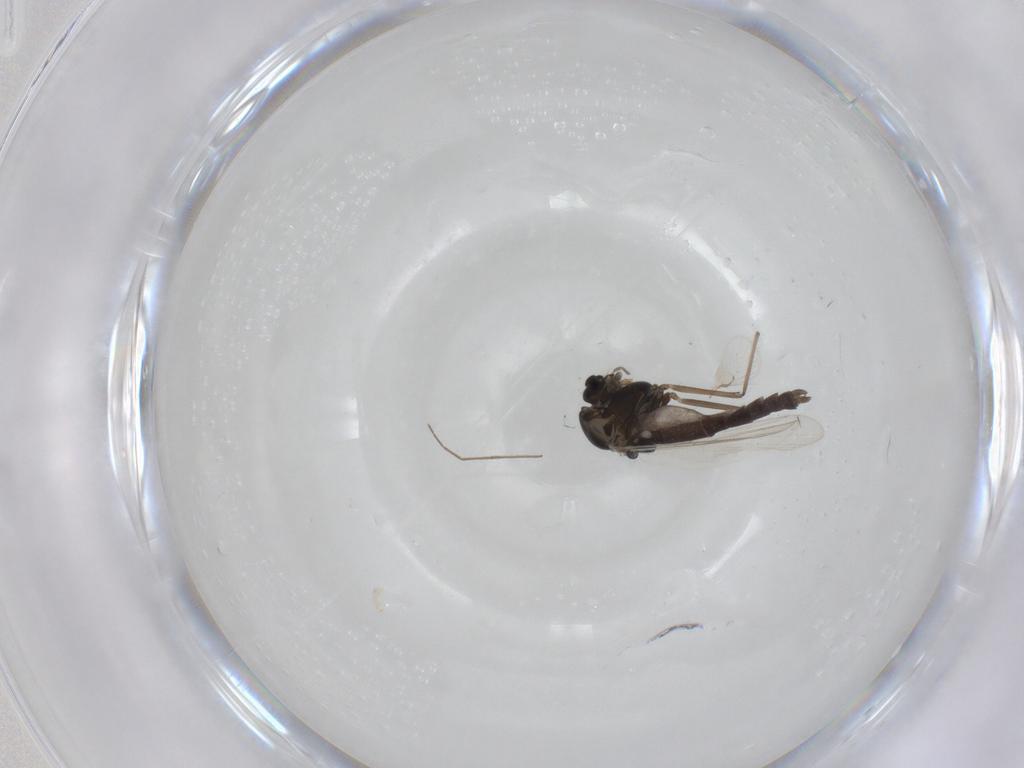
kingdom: Animalia
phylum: Arthropoda
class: Insecta
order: Diptera
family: Chironomidae
